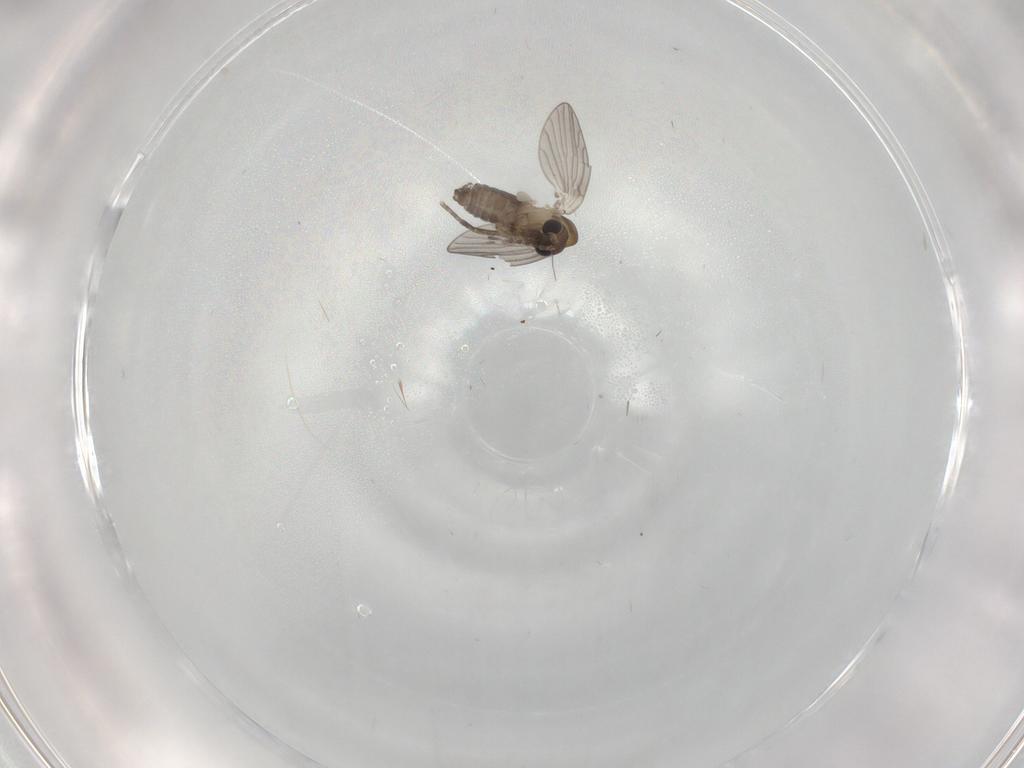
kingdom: Animalia
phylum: Arthropoda
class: Insecta
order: Diptera
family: Psychodidae
